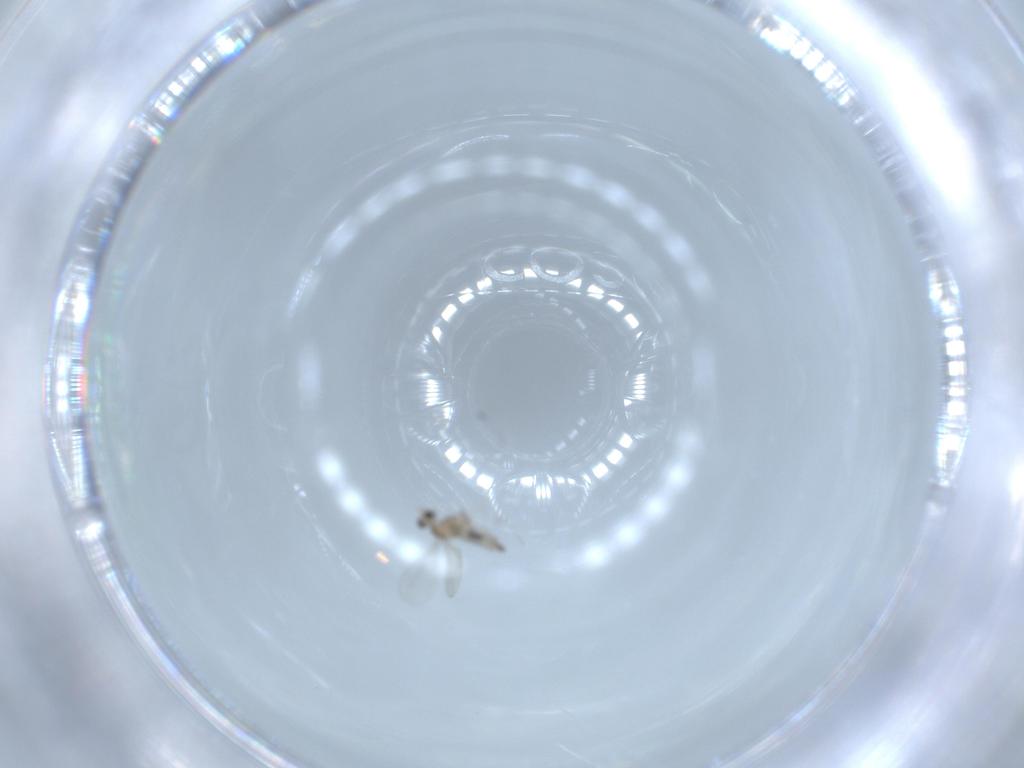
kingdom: Animalia
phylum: Arthropoda
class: Insecta
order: Diptera
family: Cecidomyiidae
